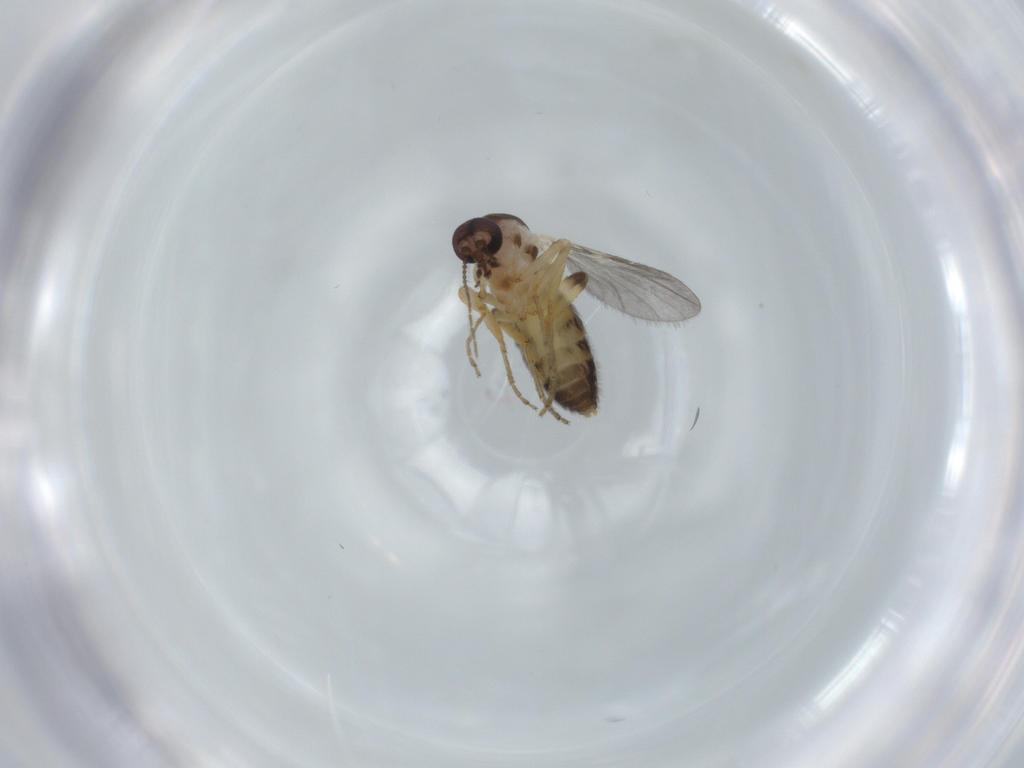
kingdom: Animalia
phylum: Arthropoda
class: Insecta
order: Diptera
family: Ceratopogonidae
